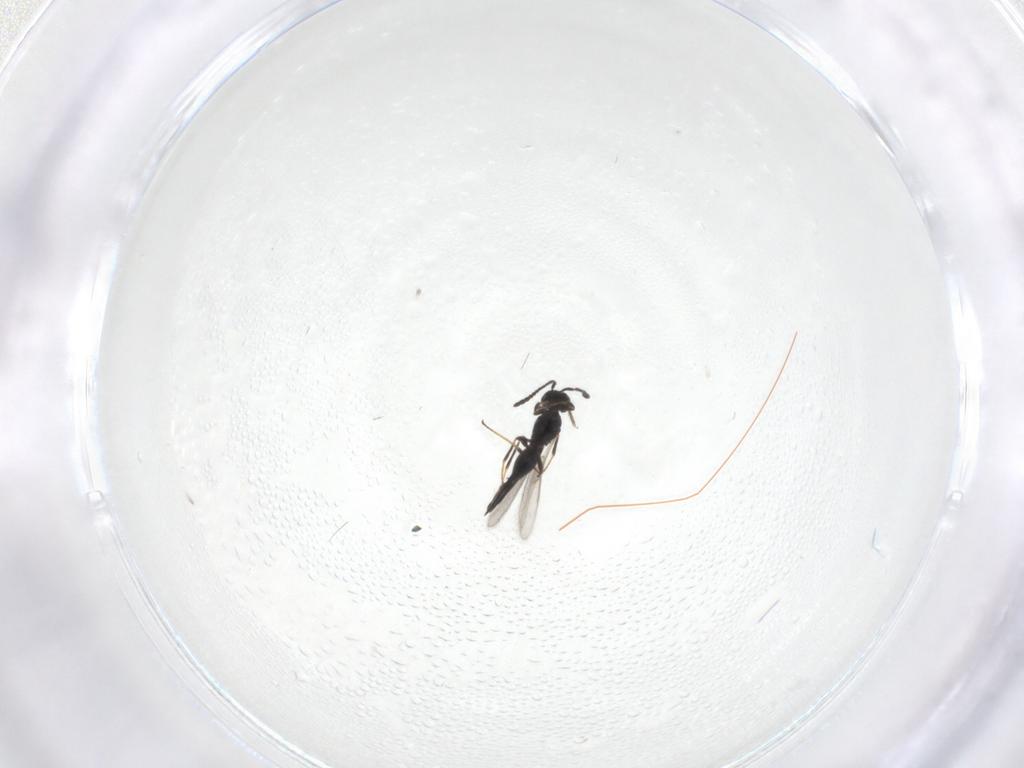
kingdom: Animalia
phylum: Arthropoda
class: Insecta
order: Hymenoptera
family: Scelionidae
